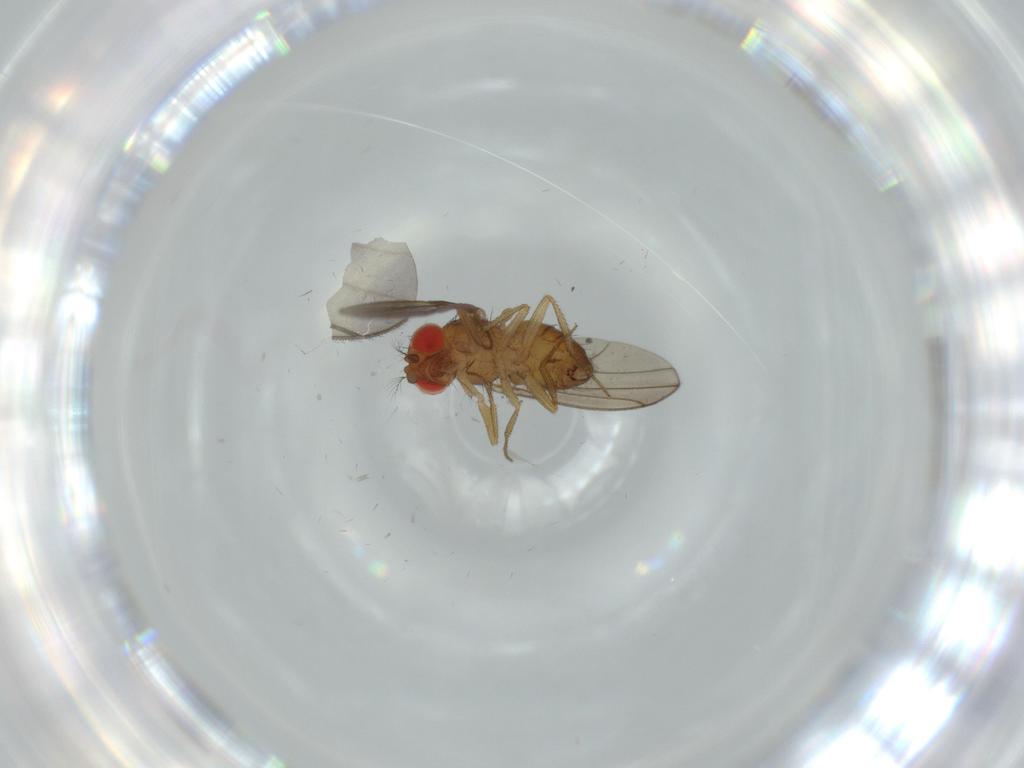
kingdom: Animalia
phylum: Arthropoda
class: Insecta
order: Diptera
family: Drosophilidae
